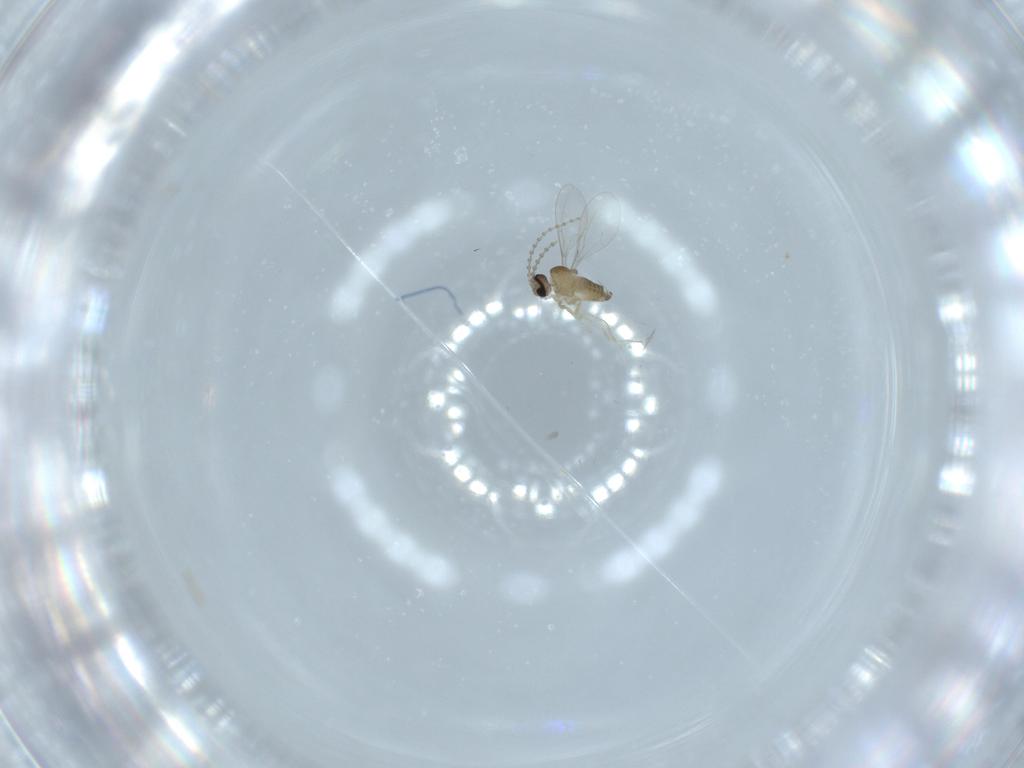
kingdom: Animalia
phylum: Arthropoda
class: Insecta
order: Diptera
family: Cecidomyiidae
